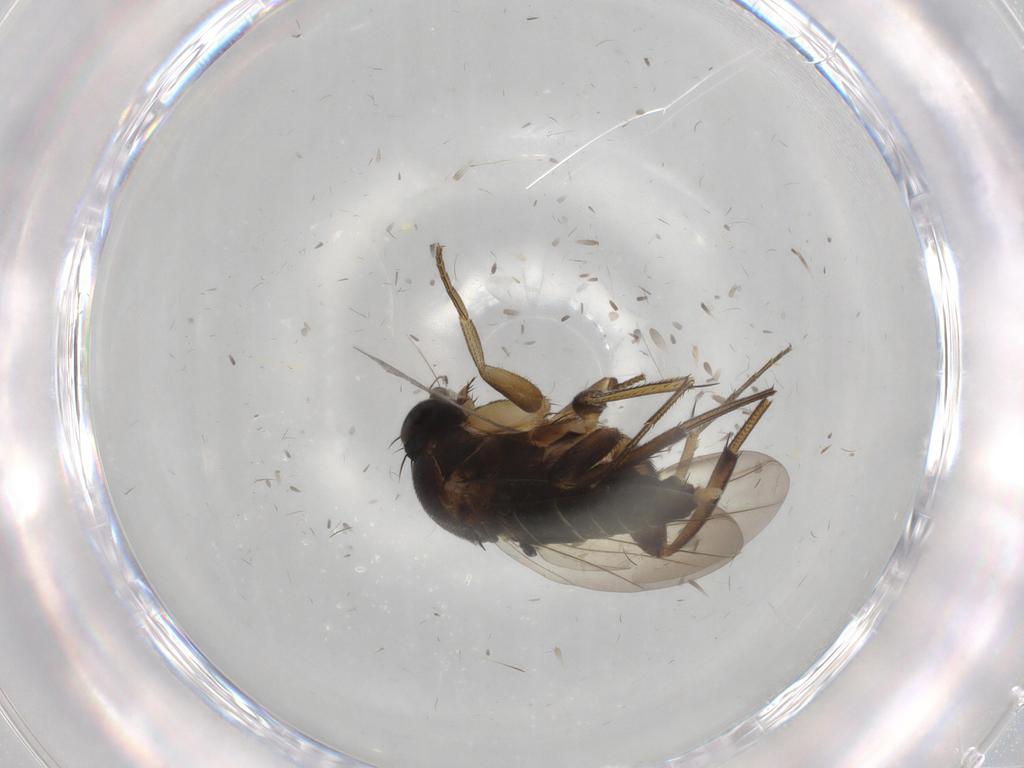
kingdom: Animalia
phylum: Arthropoda
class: Insecta
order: Diptera
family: Phoridae
